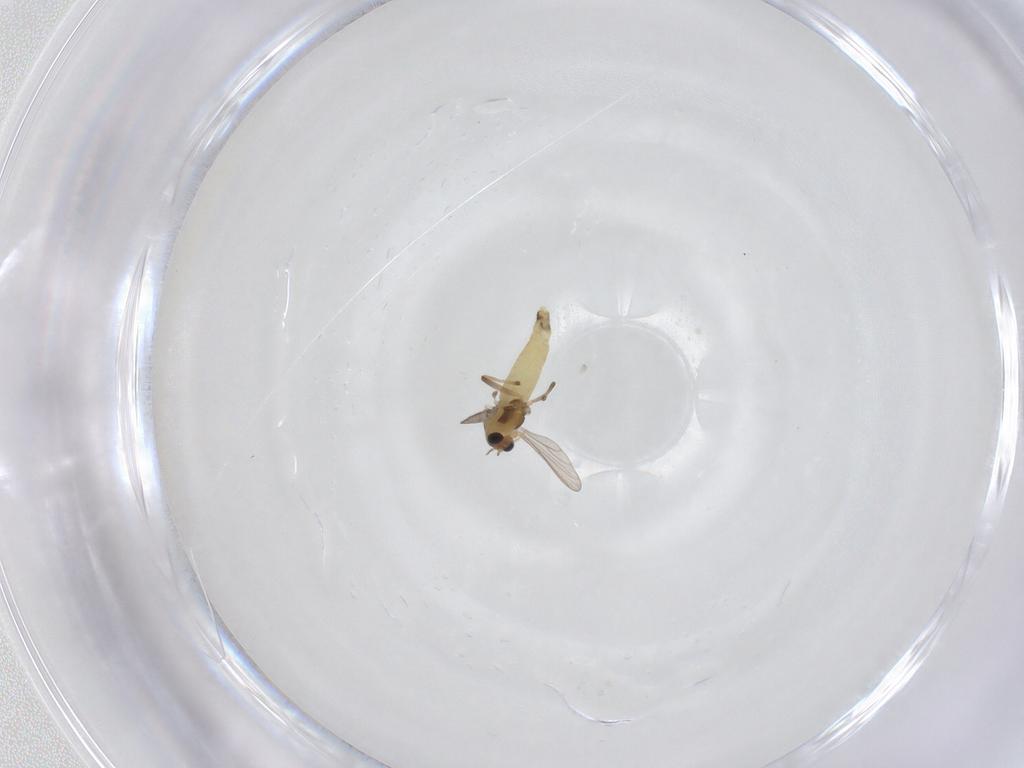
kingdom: Animalia
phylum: Arthropoda
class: Insecta
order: Diptera
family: Chironomidae
